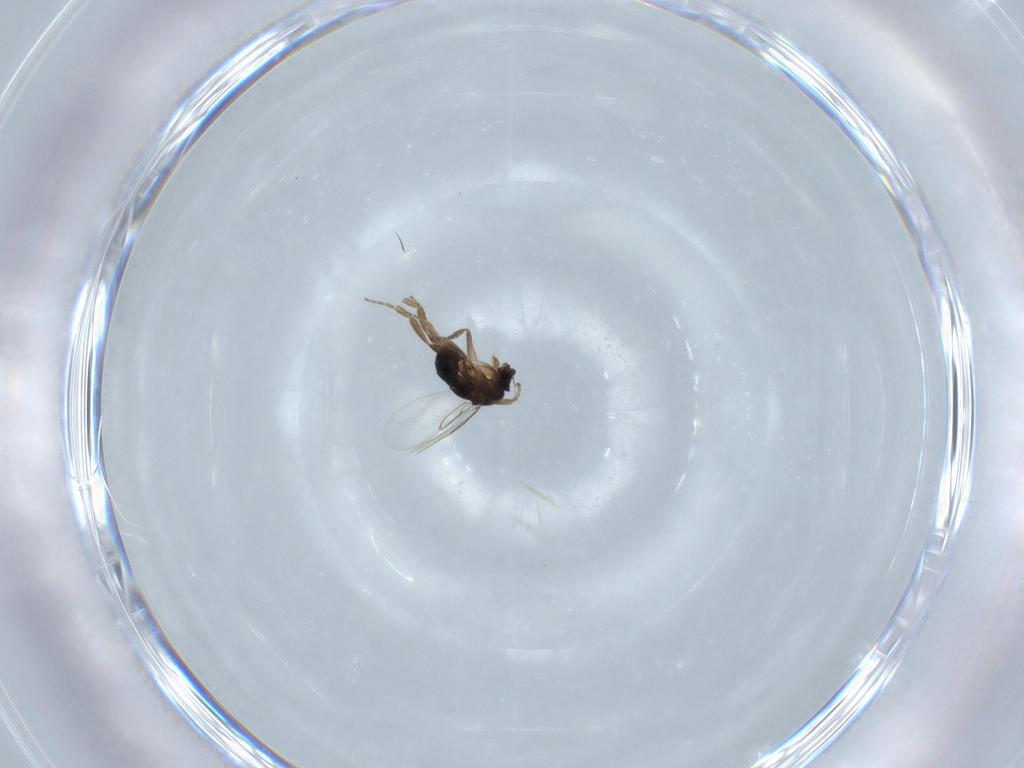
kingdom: Animalia
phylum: Arthropoda
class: Insecta
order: Diptera
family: Phoridae
